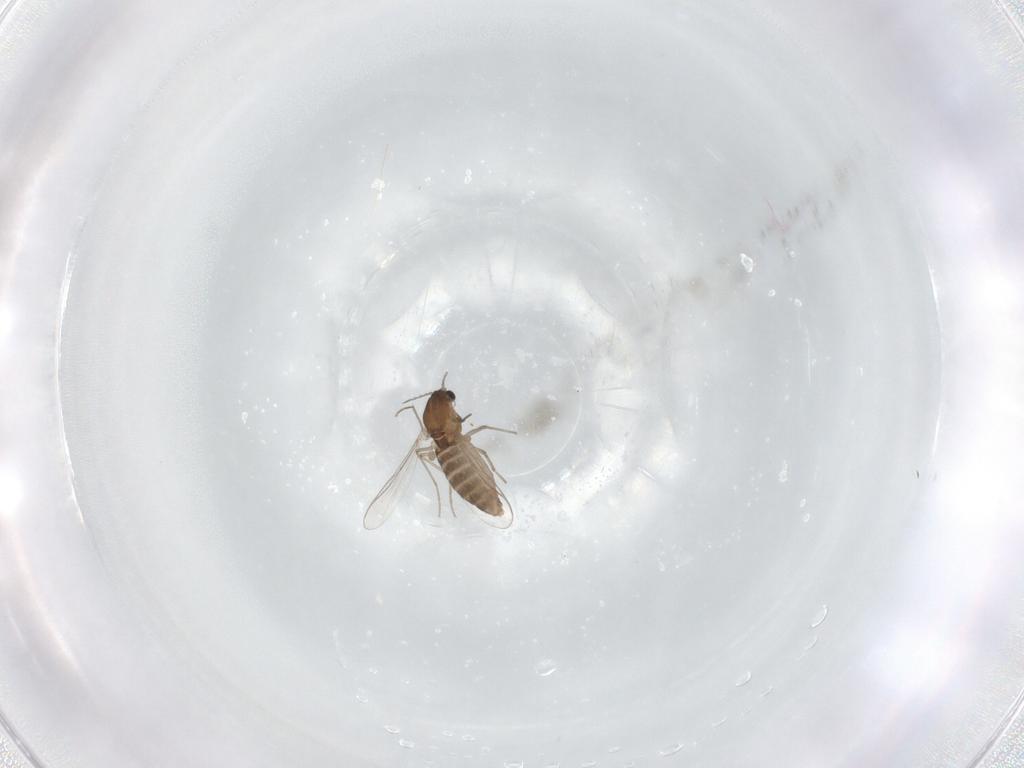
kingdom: Animalia
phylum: Arthropoda
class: Insecta
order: Diptera
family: Chironomidae
